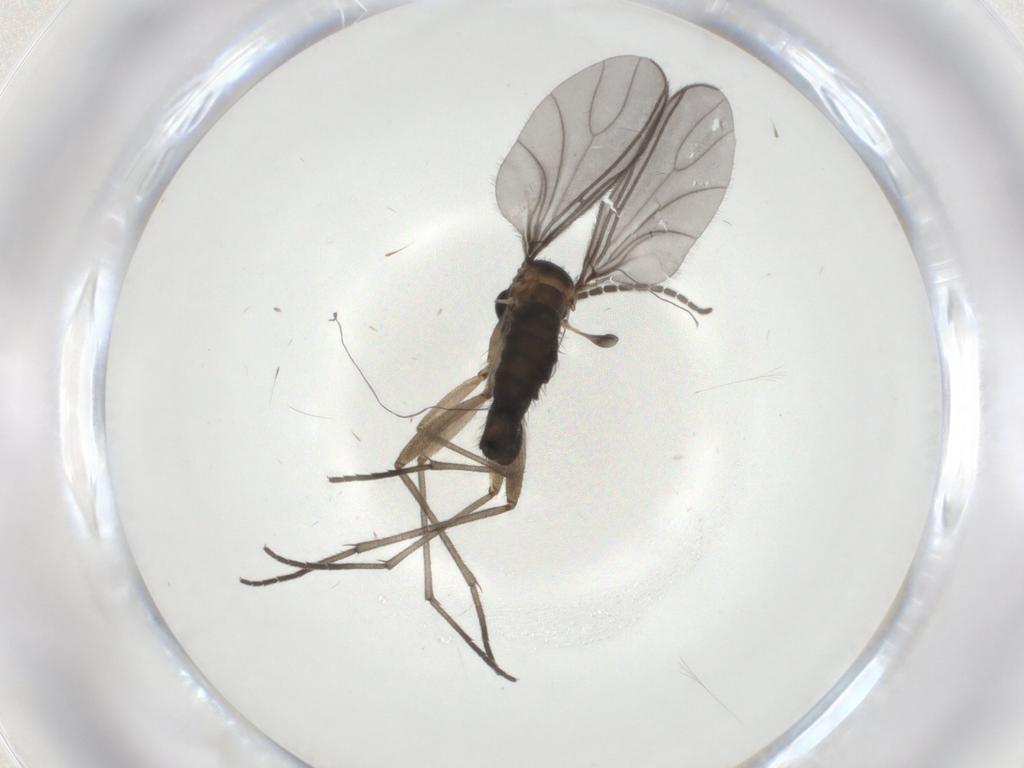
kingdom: Animalia
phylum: Arthropoda
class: Insecta
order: Diptera
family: Sciaridae
